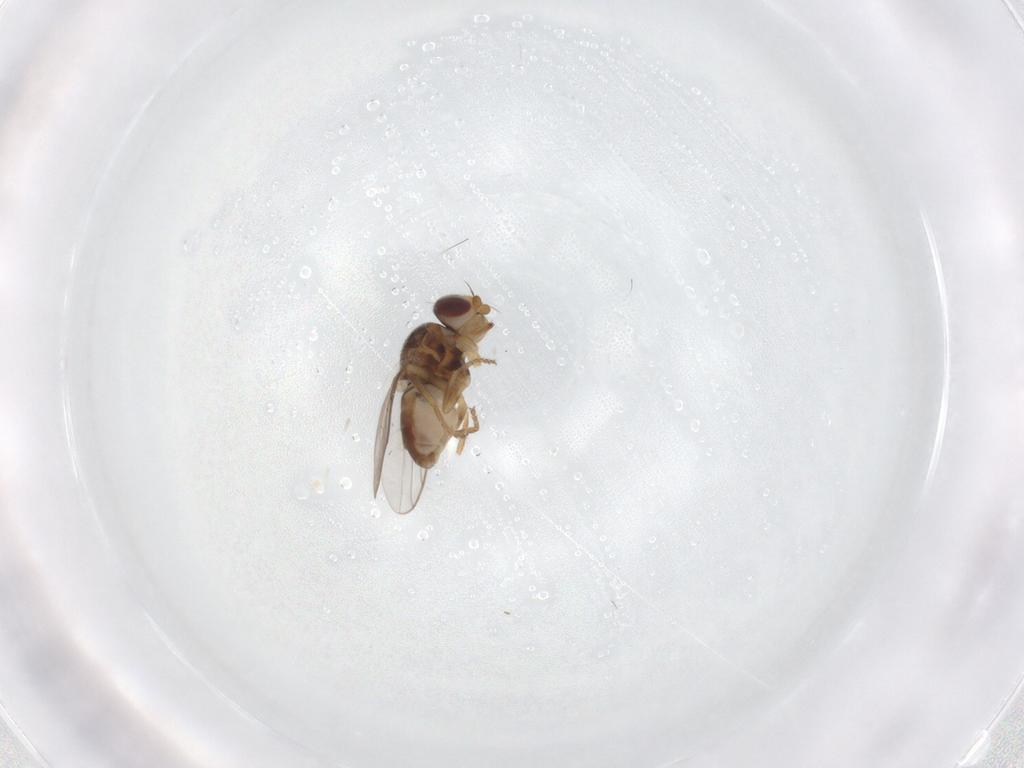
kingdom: Animalia
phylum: Arthropoda
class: Insecta
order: Diptera
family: Chloropidae
